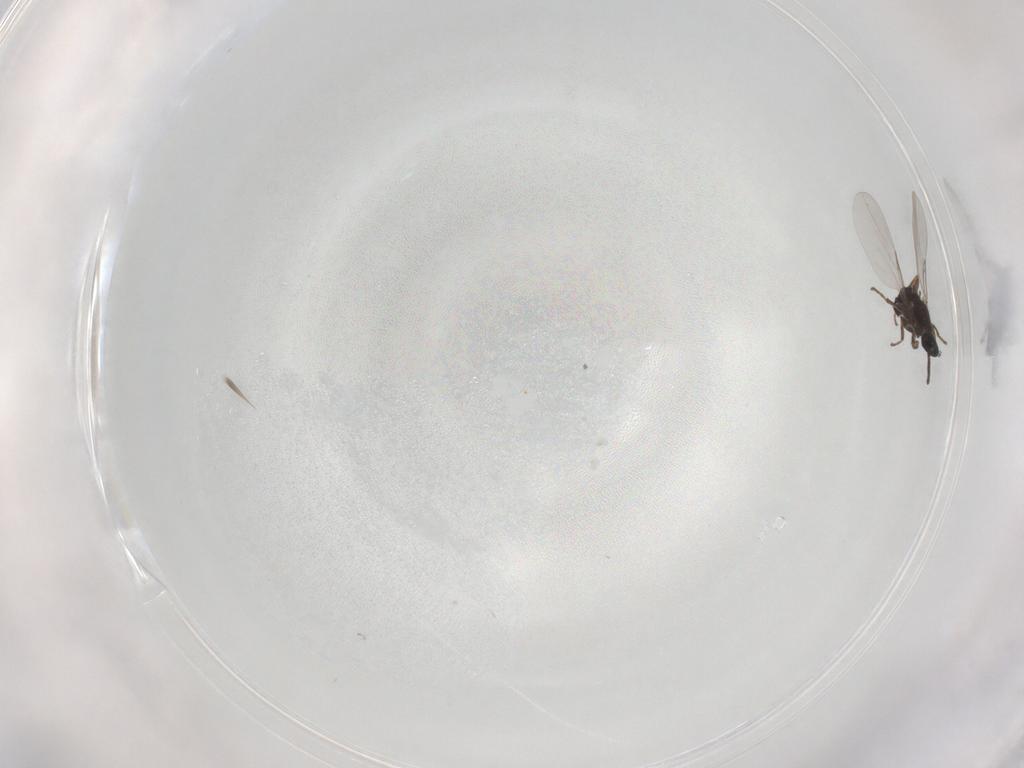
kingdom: Animalia
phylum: Arthropoda
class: Insecta
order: Diptera
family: Scatopsidae
